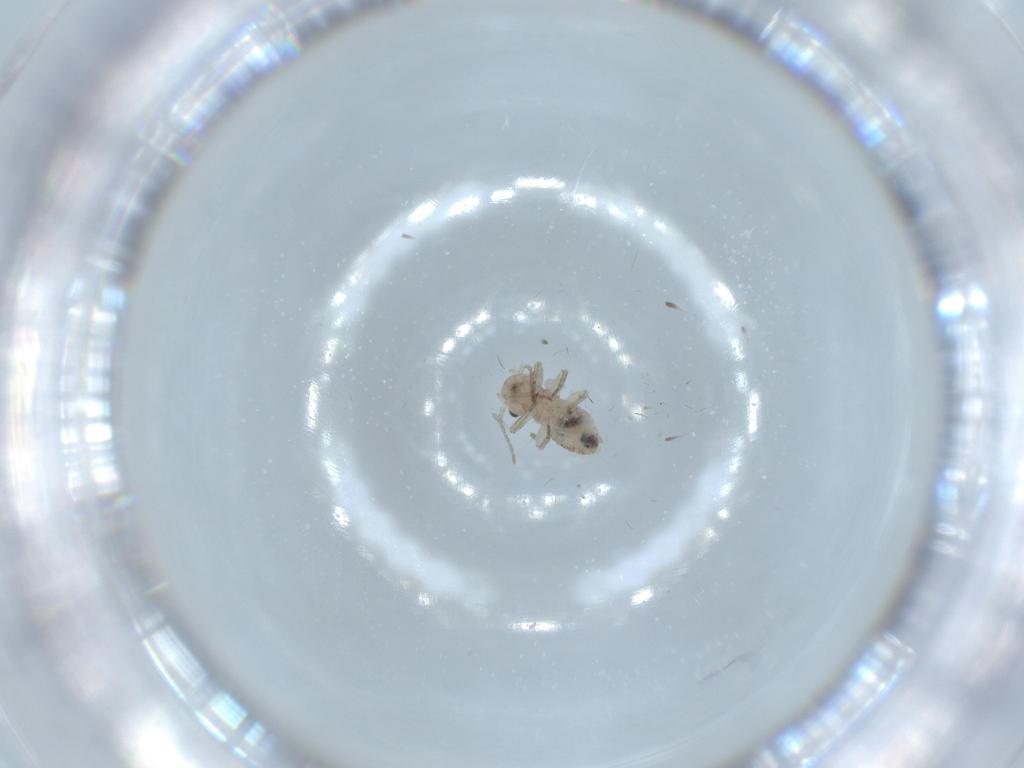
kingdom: Animalia
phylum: Arthropoda
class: Insecta
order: Psocodea
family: Lepidopsocidae
